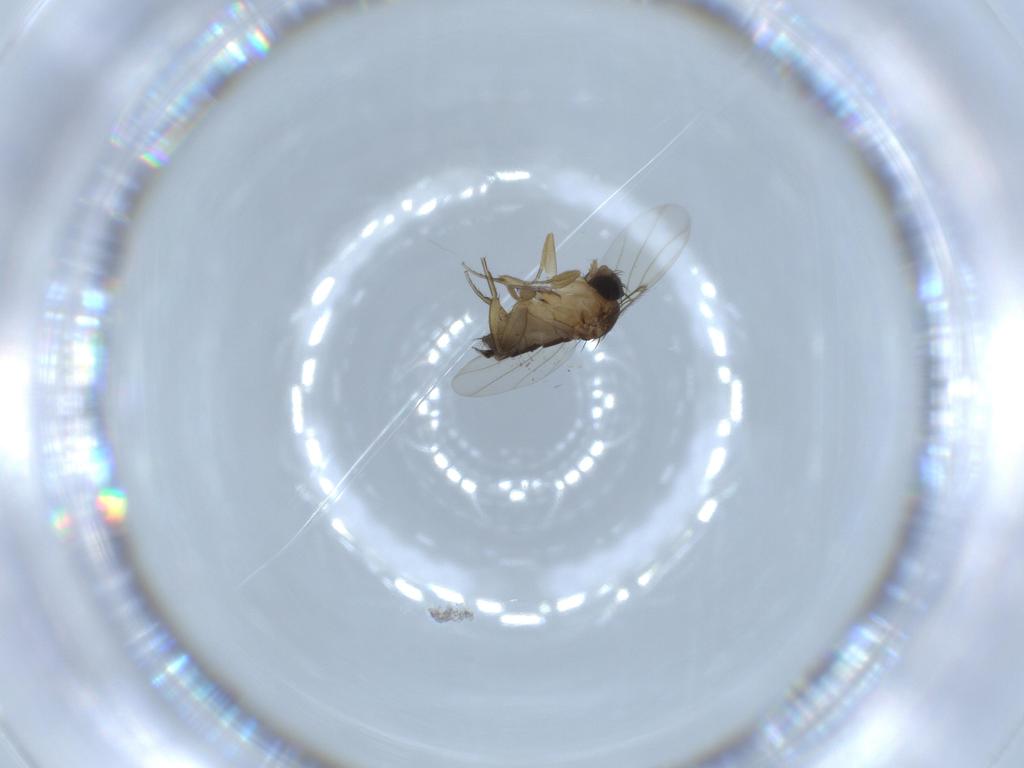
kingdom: Animalia
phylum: Arthropoda
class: Insecta
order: Diptera
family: Phoridae
